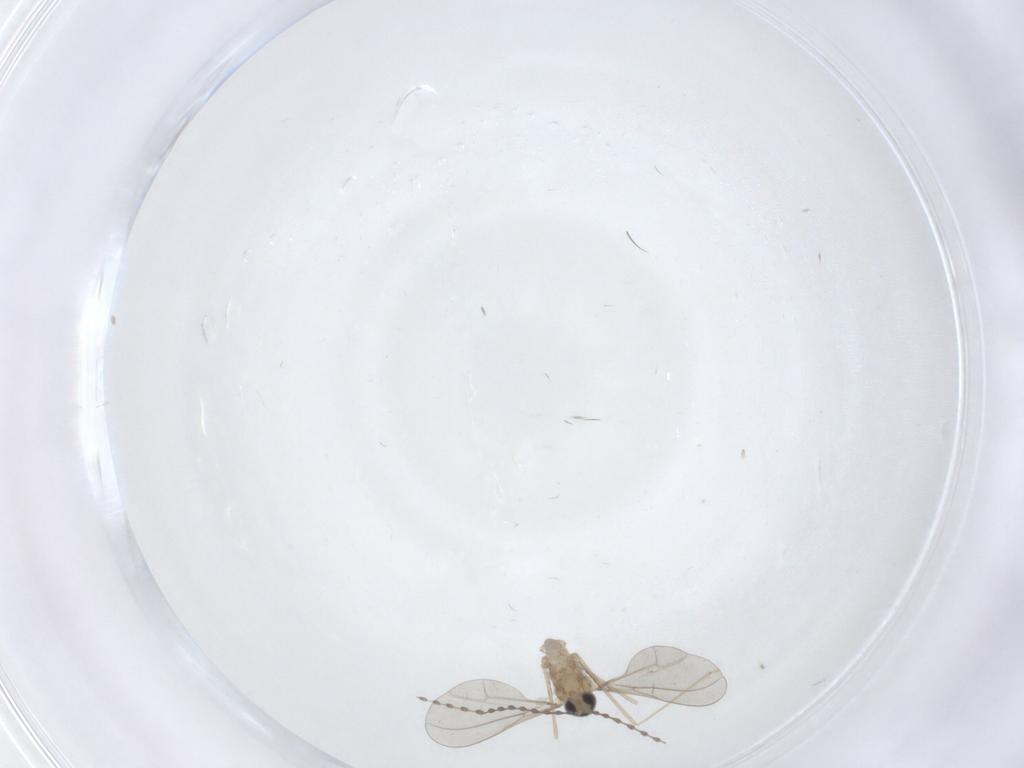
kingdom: Animalia
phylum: Arthropoda
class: Insecta
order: Diptera
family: Cecidomyiidae
